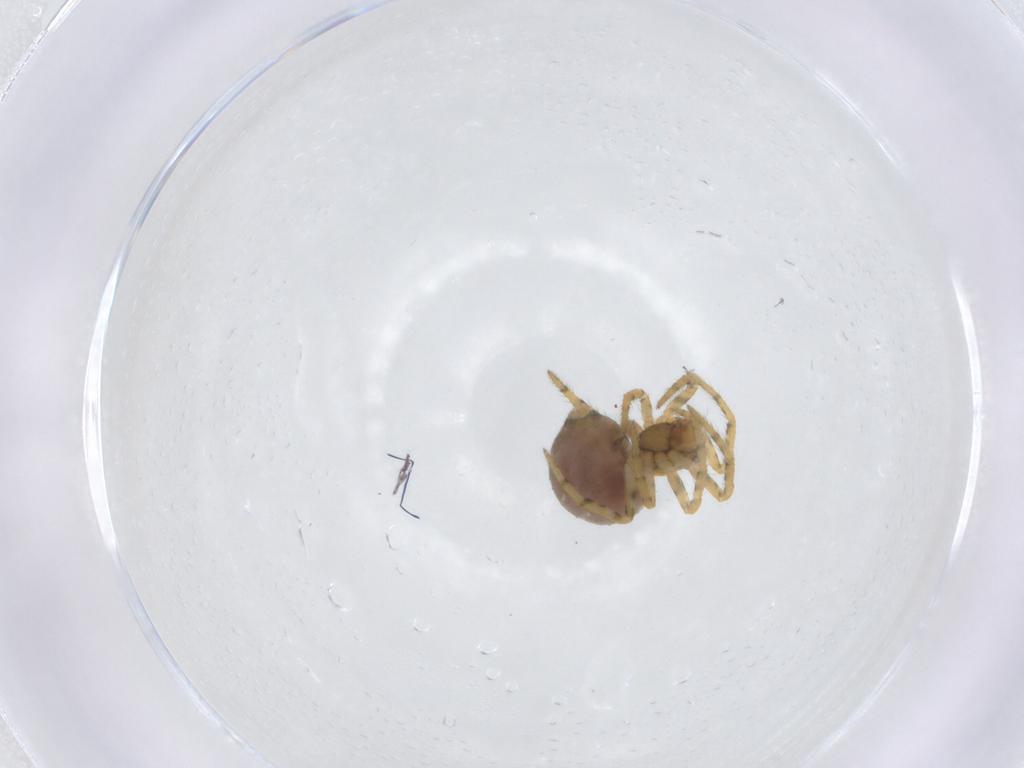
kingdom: Animalia
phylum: Arthropoda
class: Arachnida
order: Araneae
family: Theridiidae
